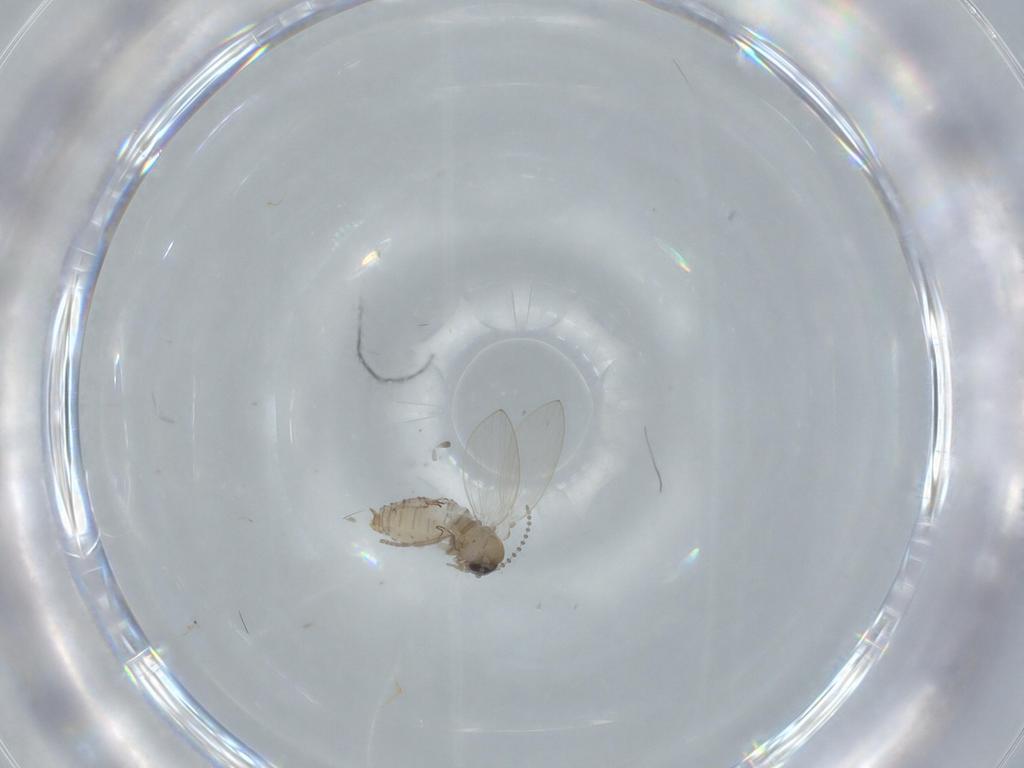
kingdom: Animalia
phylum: Arthropoda
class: Insecta
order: Diptera
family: Psychodidae
